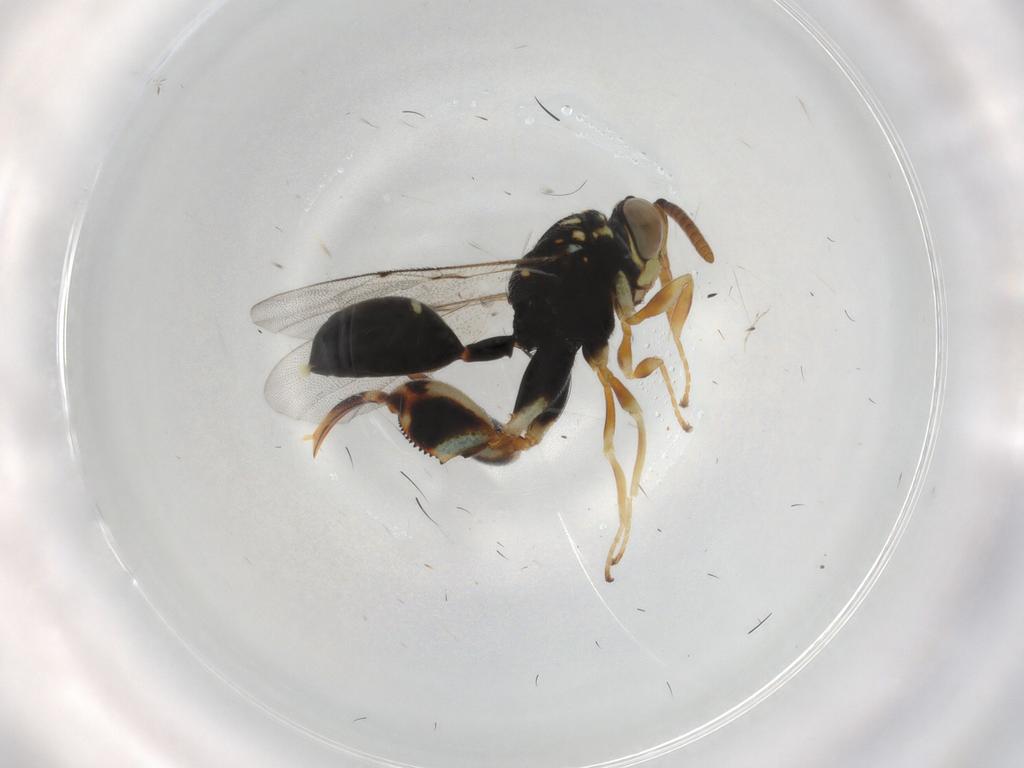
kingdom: Animalia
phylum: Arthropoda
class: Insecta
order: Hymenoptera
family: Chalcididae
